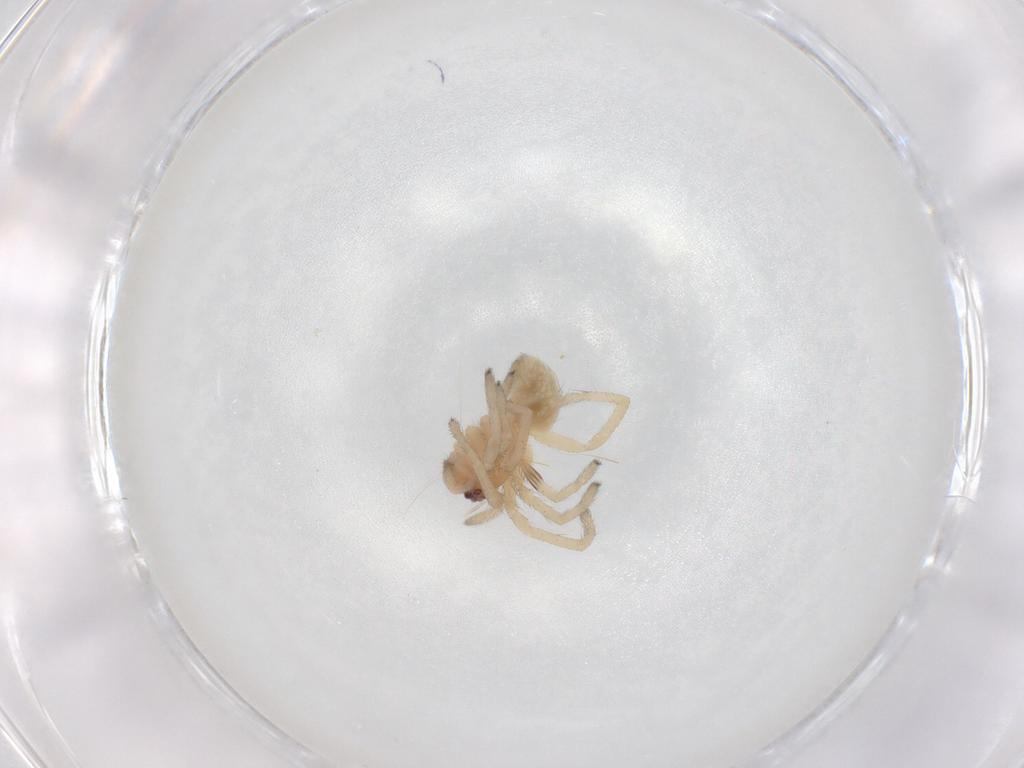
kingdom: Animalia
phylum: Arthropoda
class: Arachnida
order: Araneae
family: Cheiracanthiidae
